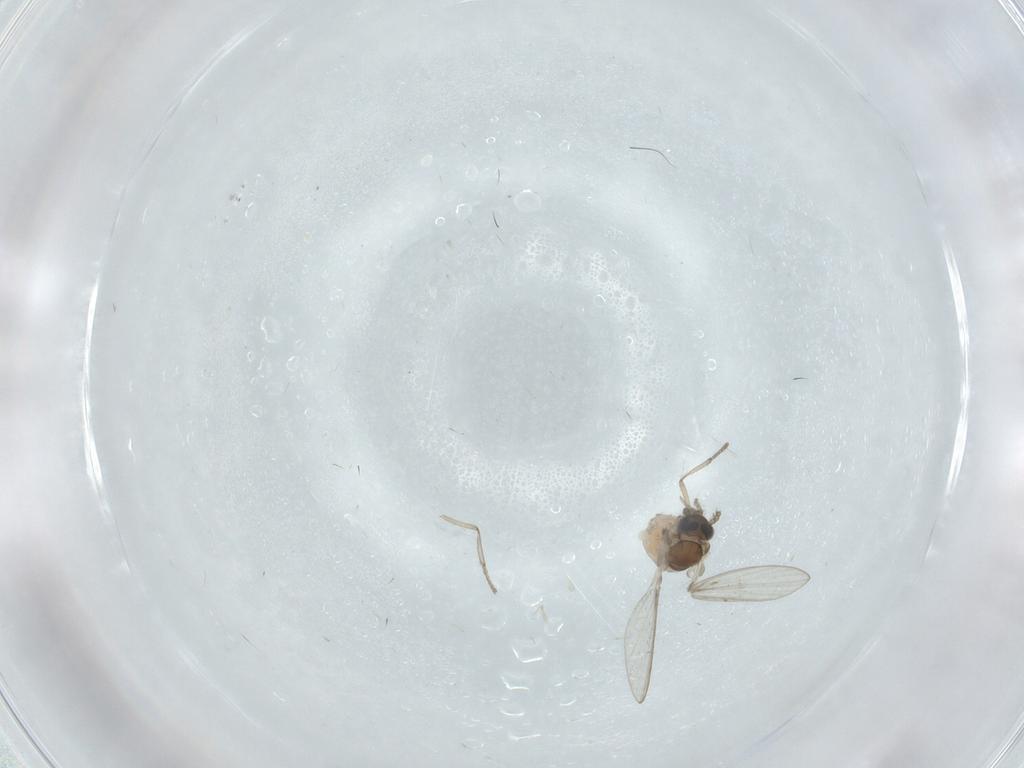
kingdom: Animalia
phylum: Arthropoda
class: Insecta
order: Diptera
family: Psychodidae
